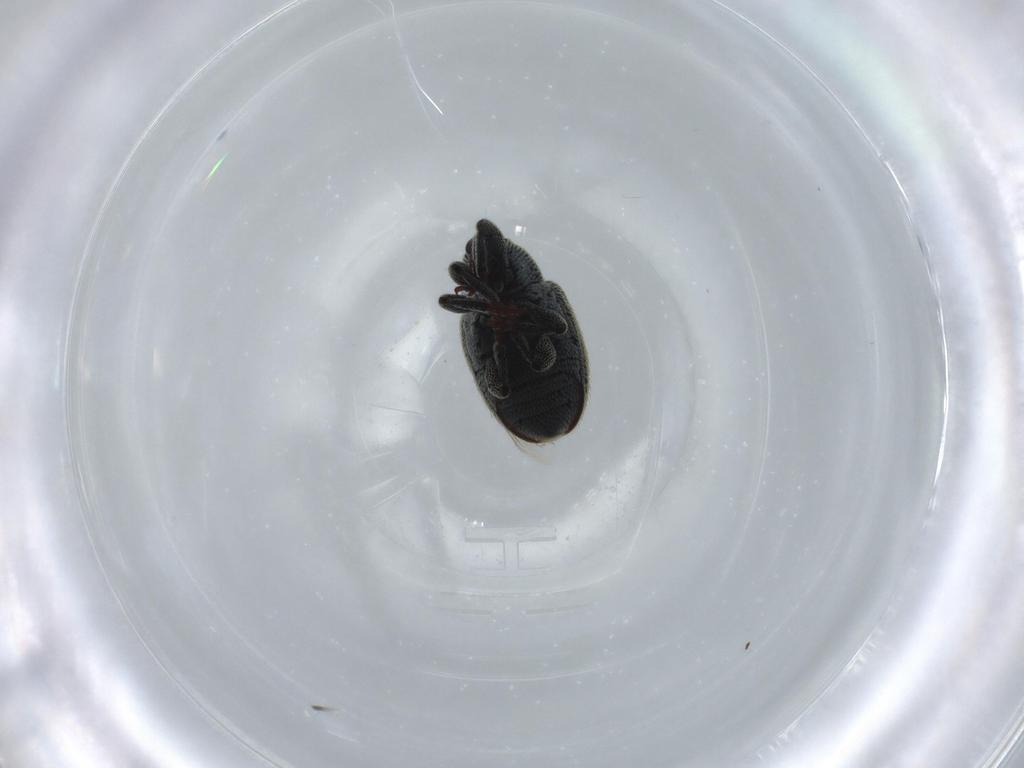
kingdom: Animalia
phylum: Arthropoda
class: Insecta
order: Coleoptera
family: Curculionidae
